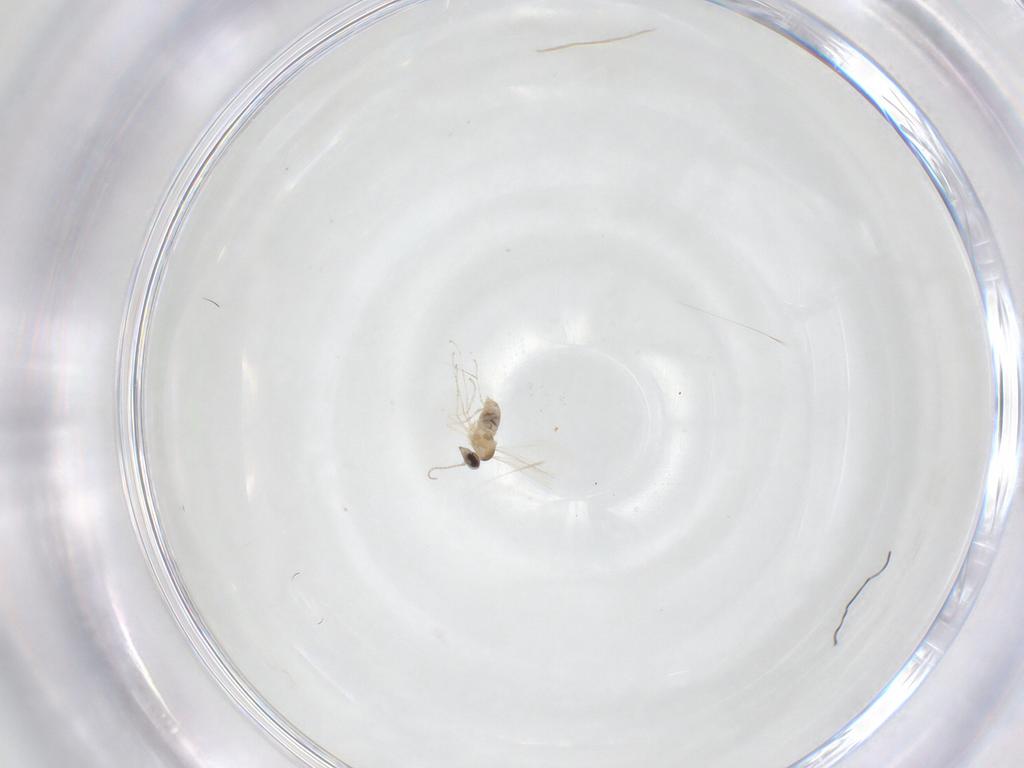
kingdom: Animalia
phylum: Arthropoda
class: Insecta
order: Diptera
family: Cecidomyiidae
